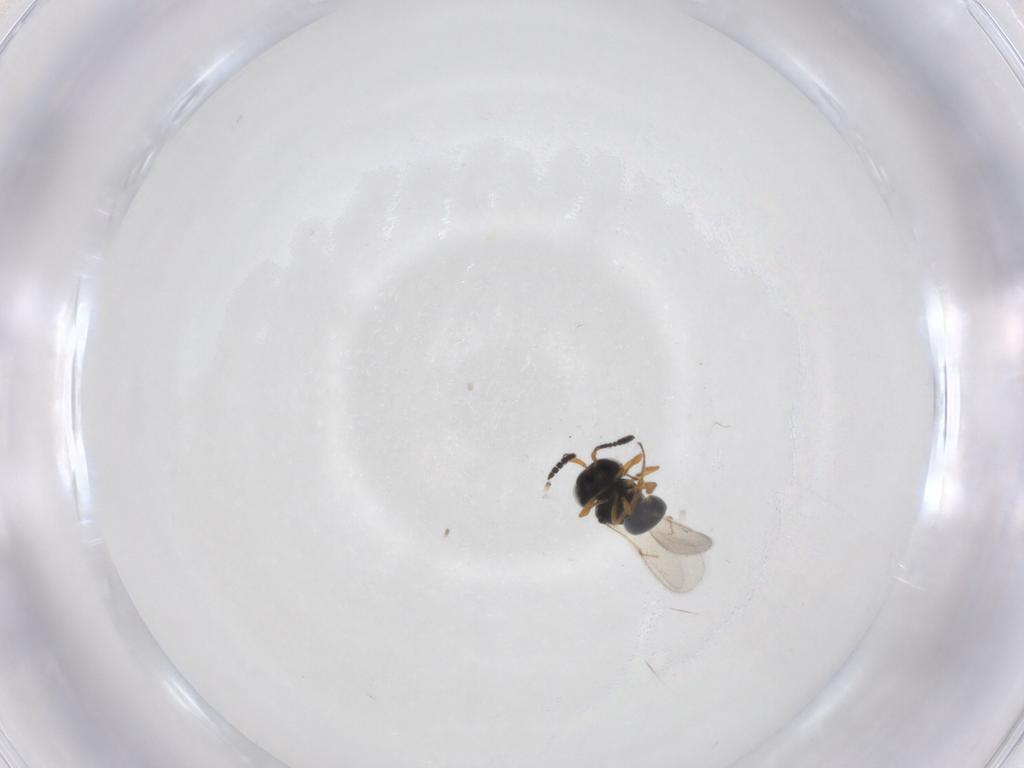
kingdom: Animalia
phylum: Arthropoda
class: Insecta
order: Hymenoptera
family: Scelionidae
